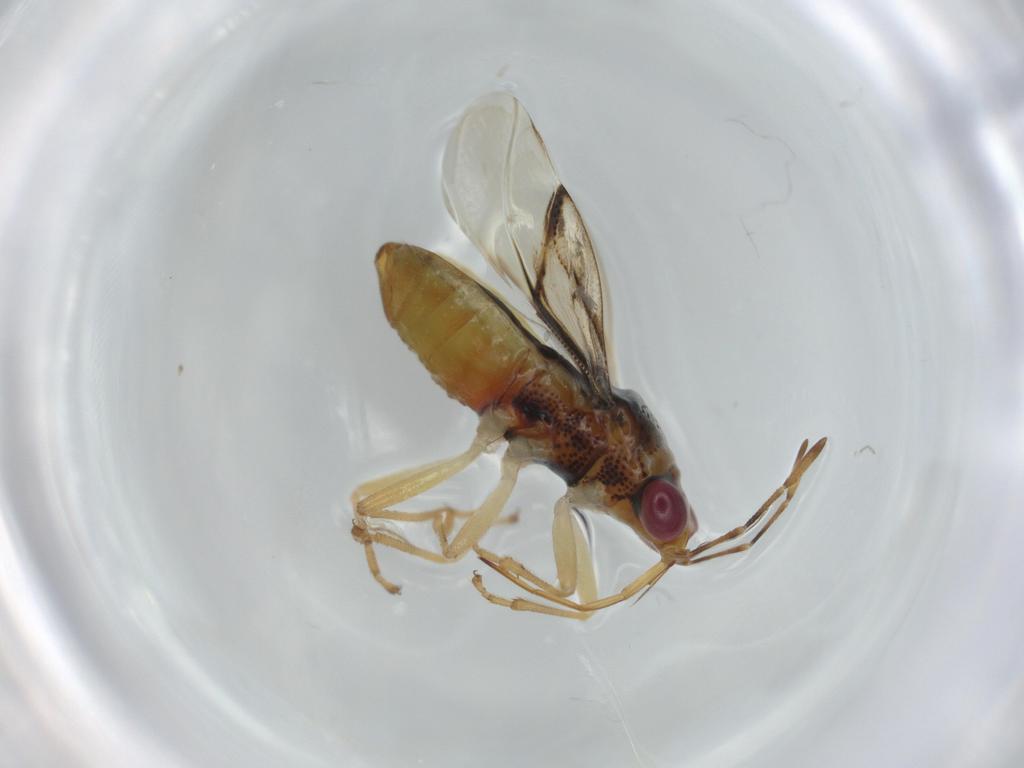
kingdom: Animalia
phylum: Arthropoda
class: Insecta
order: Hemiptera
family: Geocoridae
